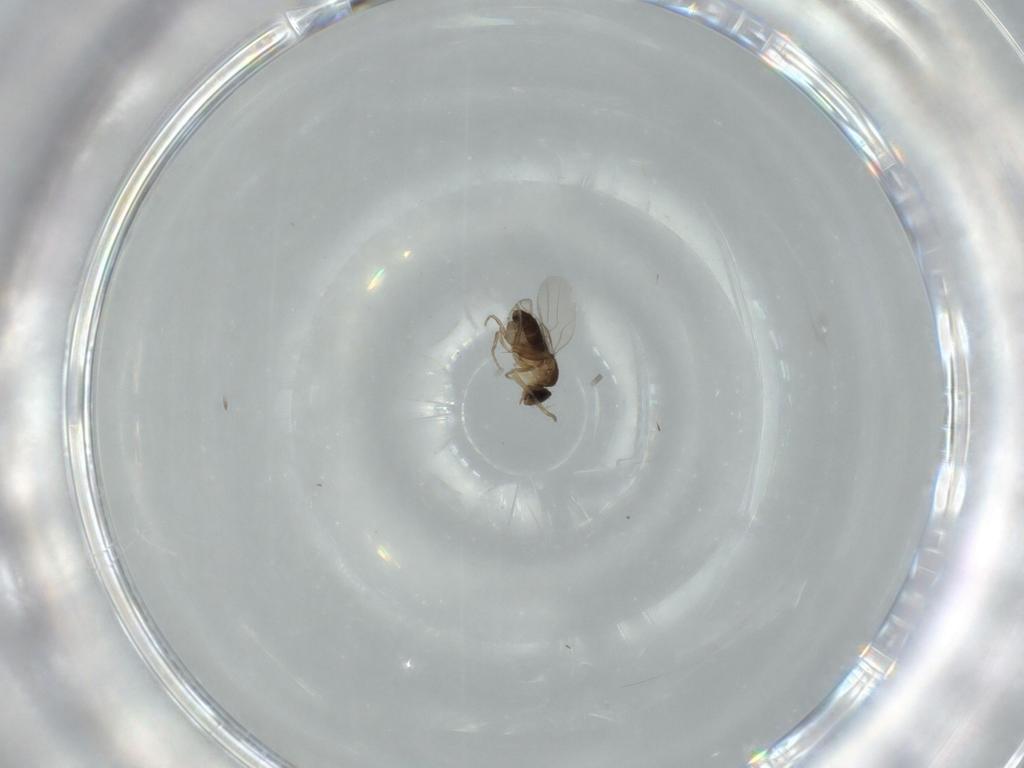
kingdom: Animalia
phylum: Arthropoda
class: Insecta
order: Diptera
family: Phoridae
